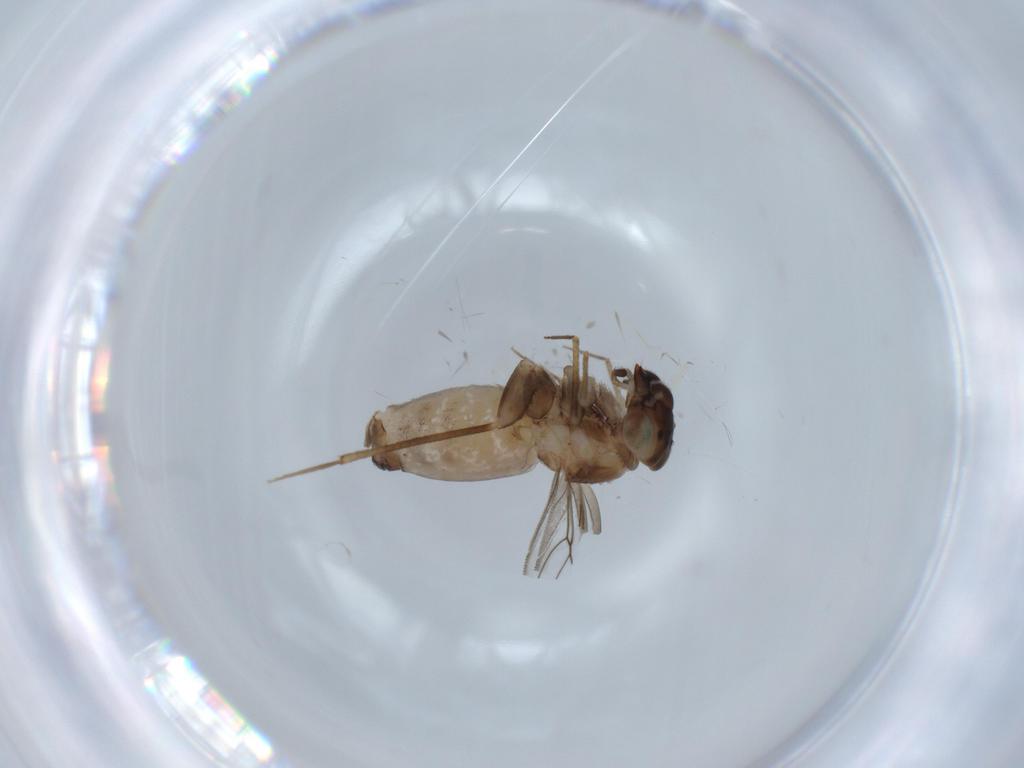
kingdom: Animalia
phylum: Arthropoda
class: Insecta
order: Psocodea
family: Lepidopsocidae
